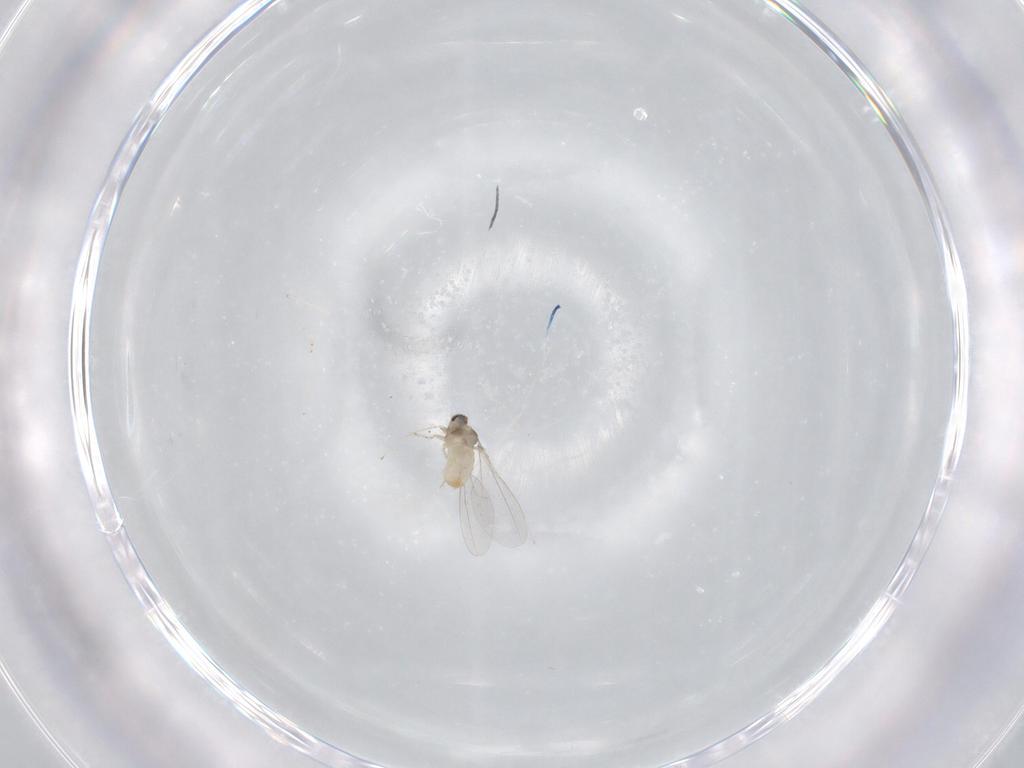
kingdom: Animalia
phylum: Arthropoda
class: Insecta
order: Diptera
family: Cecidomyiidae
